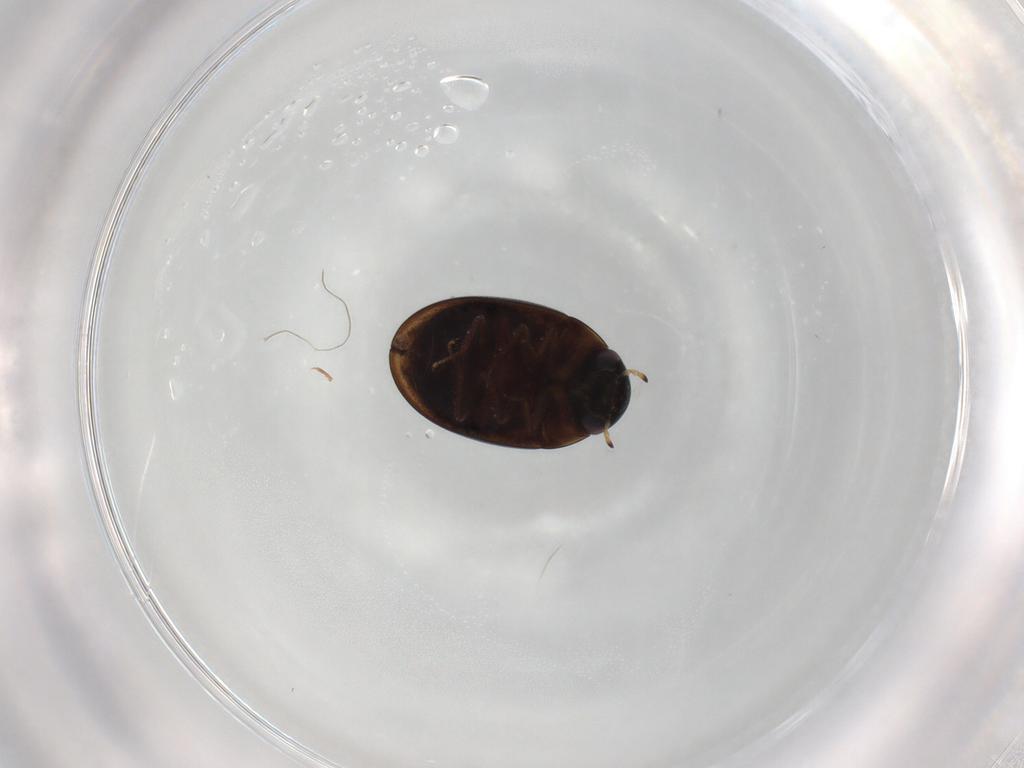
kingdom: Animalia
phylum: Arthropoda
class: Insecta
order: Coleoptera
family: Hydrophilidae
